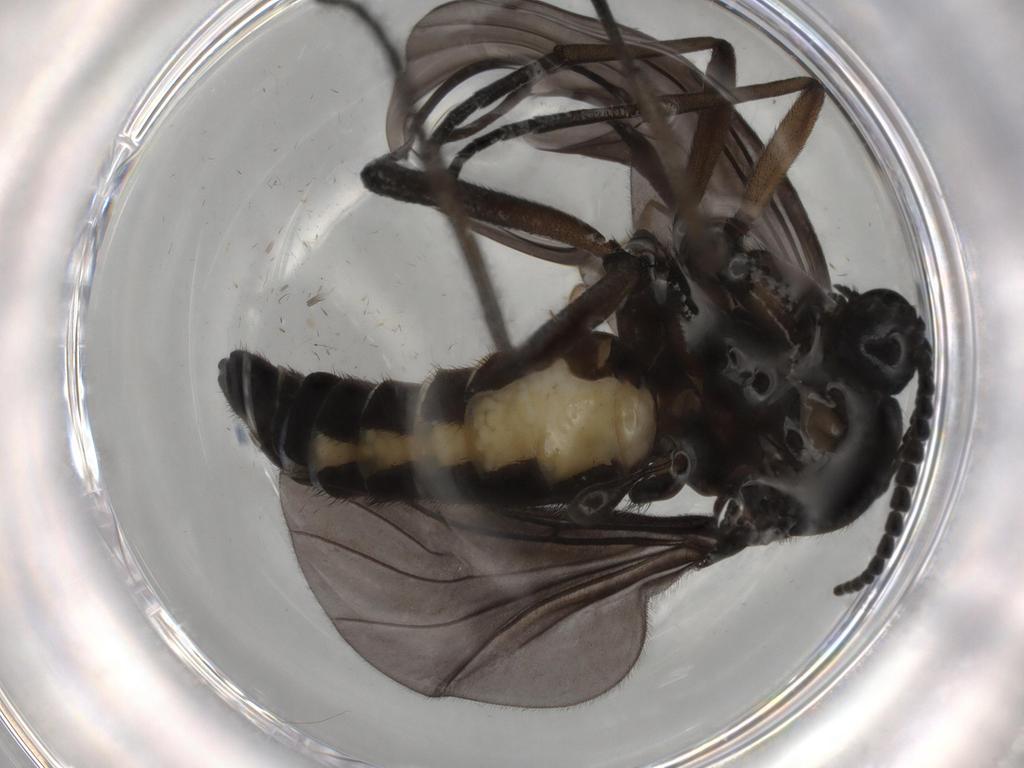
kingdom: Animalia
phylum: Arthropoda
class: Insecta
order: Diptera
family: Sciaridae
